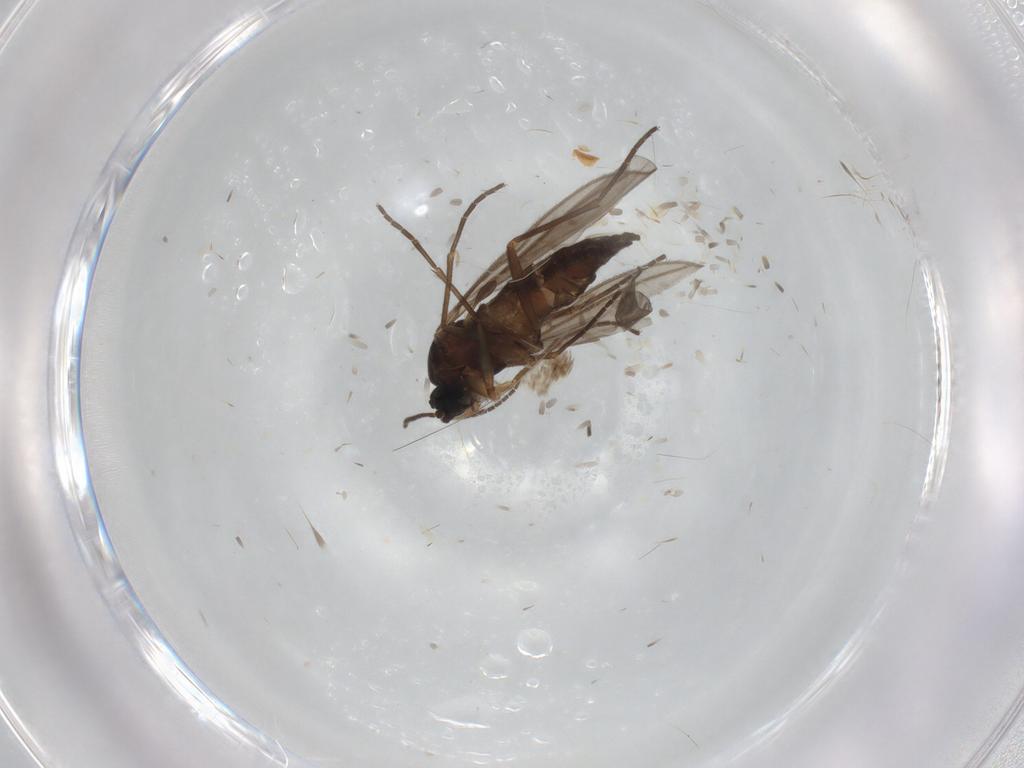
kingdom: Animalia
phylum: Arthropoda
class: Insecta
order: Diptera
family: Sciaridae
